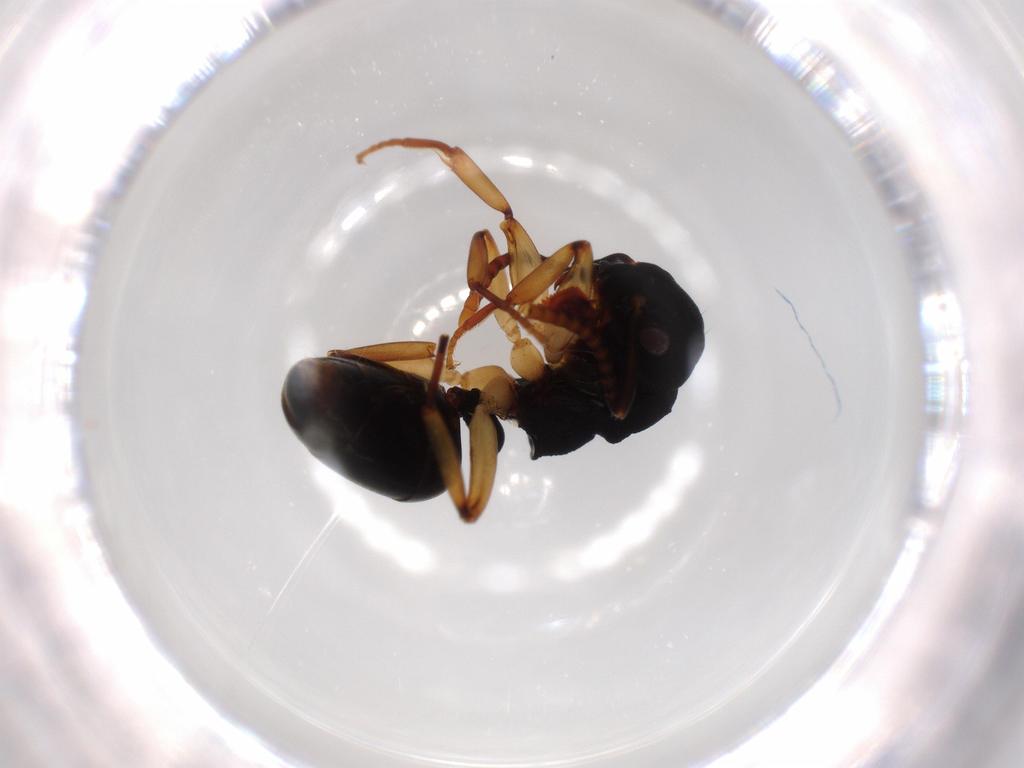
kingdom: Animalia
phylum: Arthropoda
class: Insecta
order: Hymenoptera
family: Formicidae
